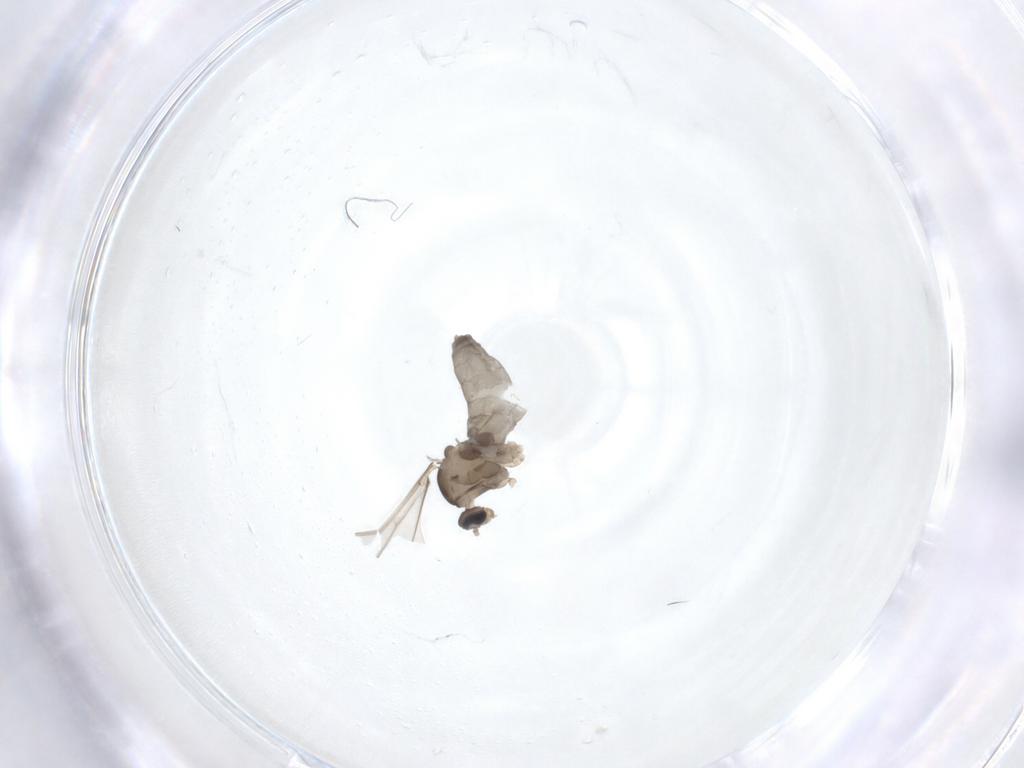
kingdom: Animalia
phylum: Arthropoda
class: Insecta
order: Diptera
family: Cecidomyiidae
